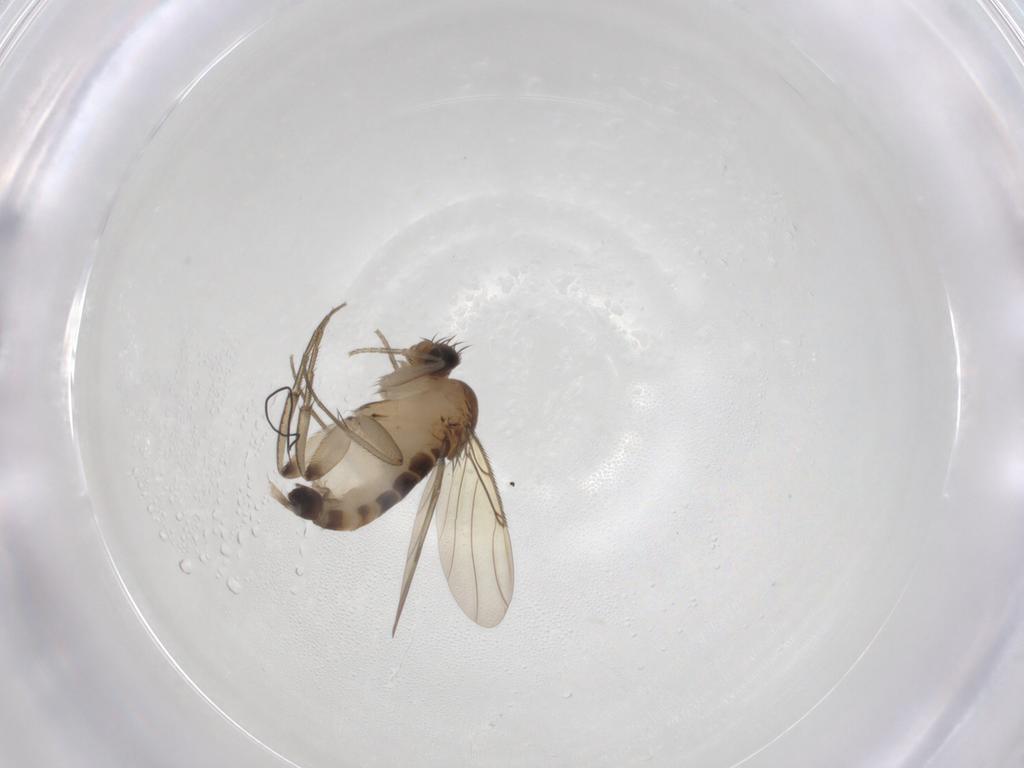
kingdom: Animalia
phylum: Arthropoda
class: Insecta
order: Diptera
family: Phoridae
